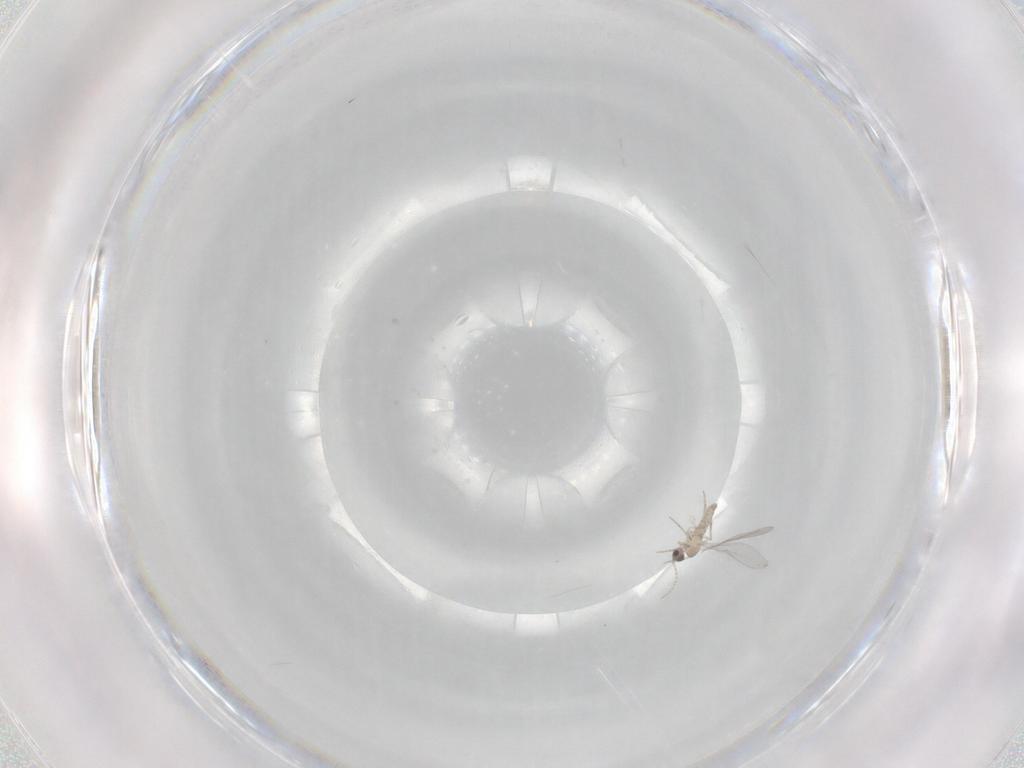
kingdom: Animalia
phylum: Arthropoda
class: Insecta
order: Diptera
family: Cecidomyiidae
